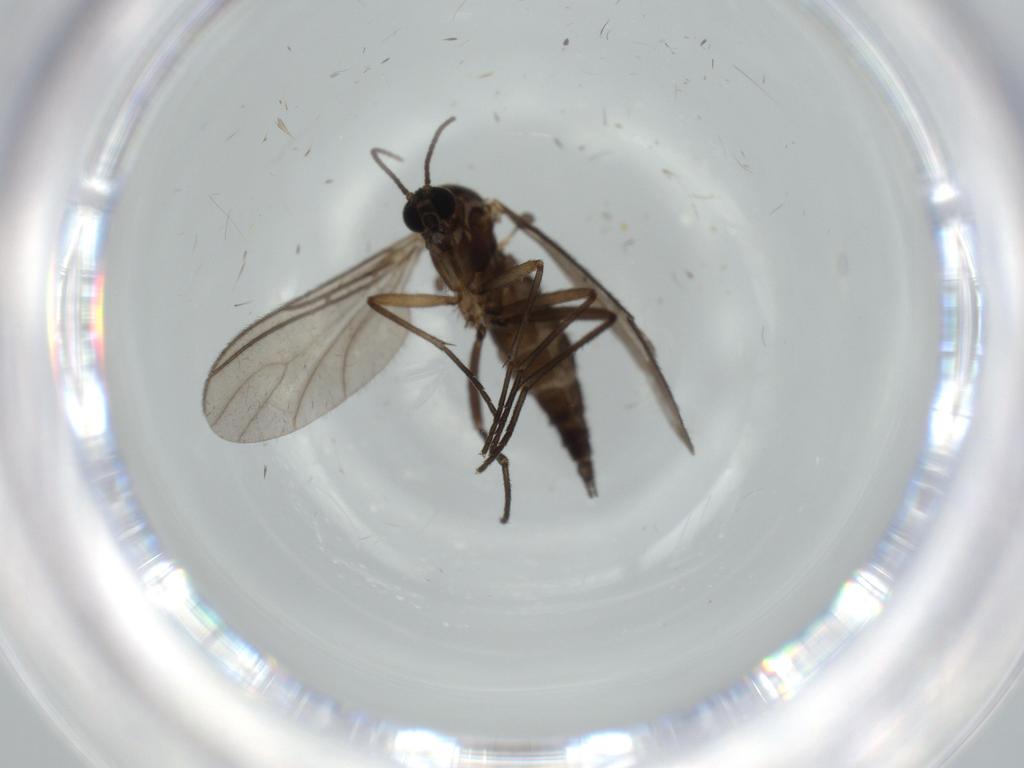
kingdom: Animalia
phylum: Arthropoda
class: Insecta
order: Diptera
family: Sciaridae
